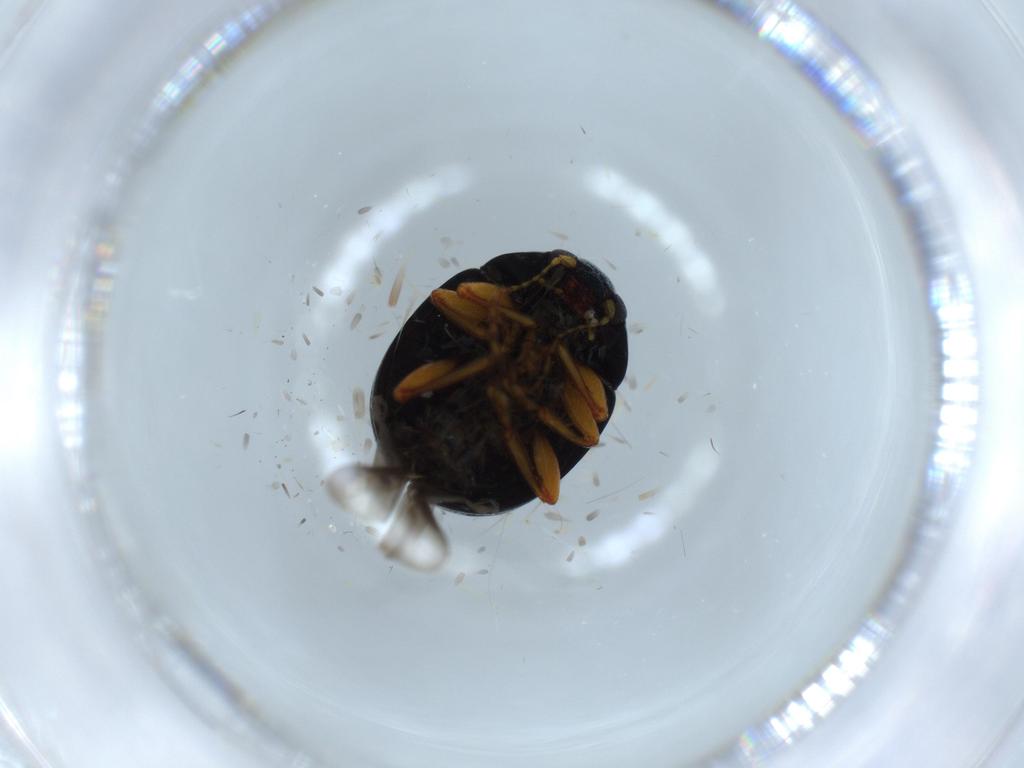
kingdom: Animalia
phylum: Arthropoda
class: Insecta
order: Coleoptera
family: Chrysomelidae
